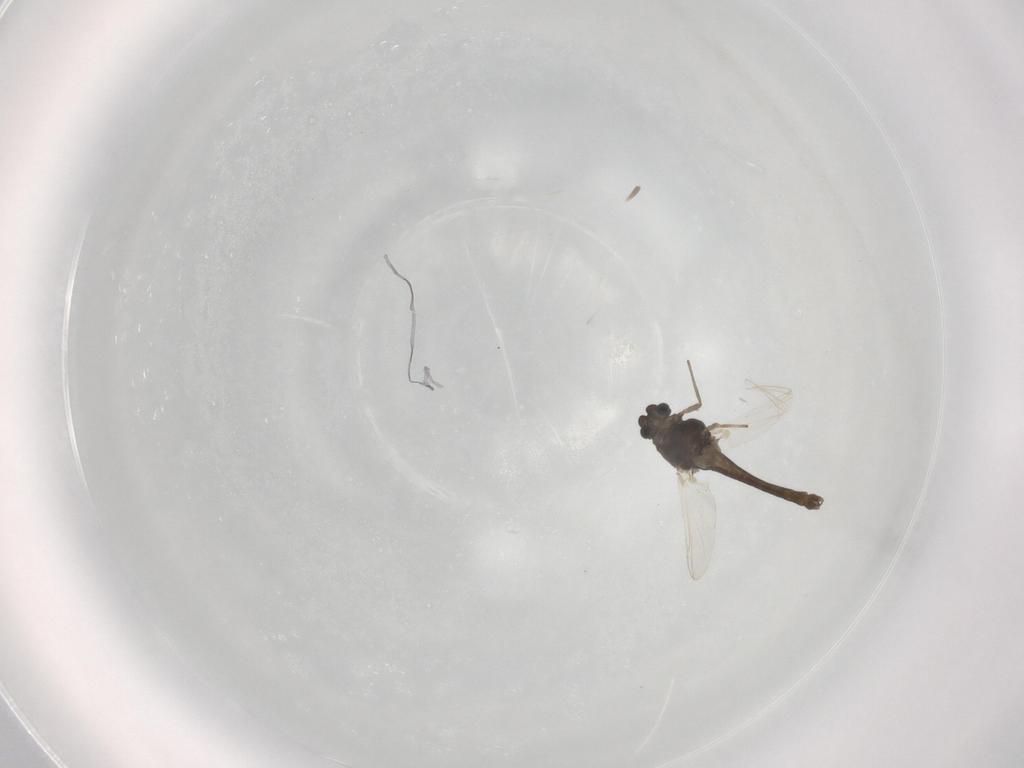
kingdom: Animalia
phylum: Arthropoda
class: Insecta
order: Diptera
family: Chironomidae
